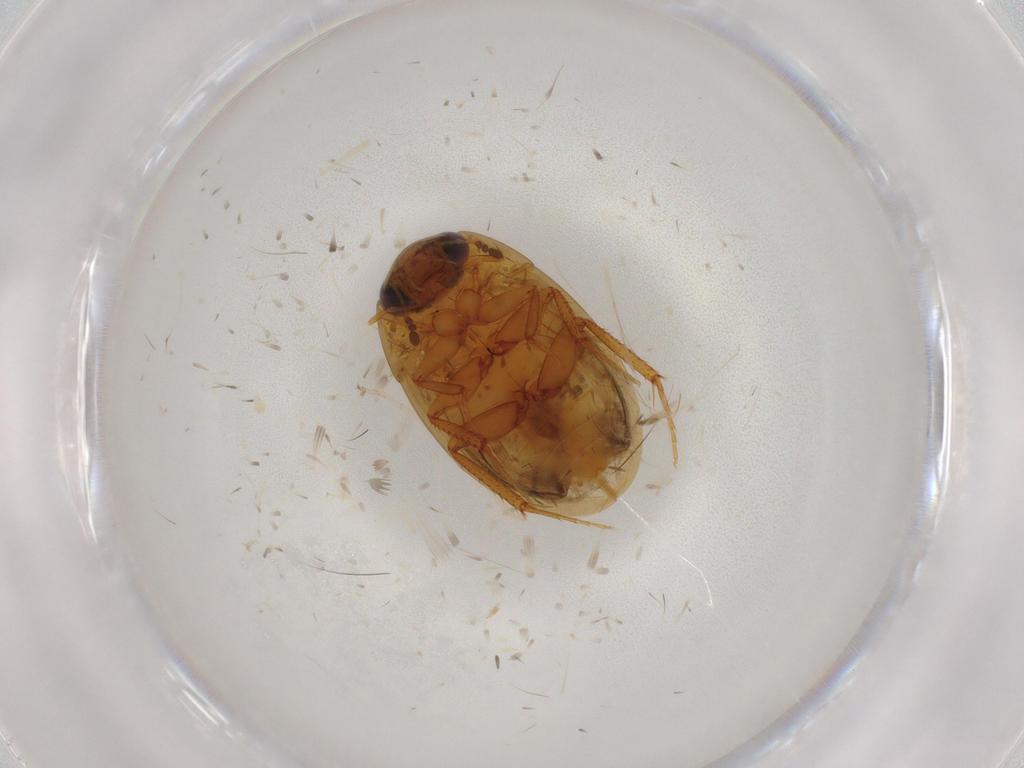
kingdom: Animalia
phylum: Arthropoda
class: Insecta
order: Coleoptera
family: Hydrophilidae
